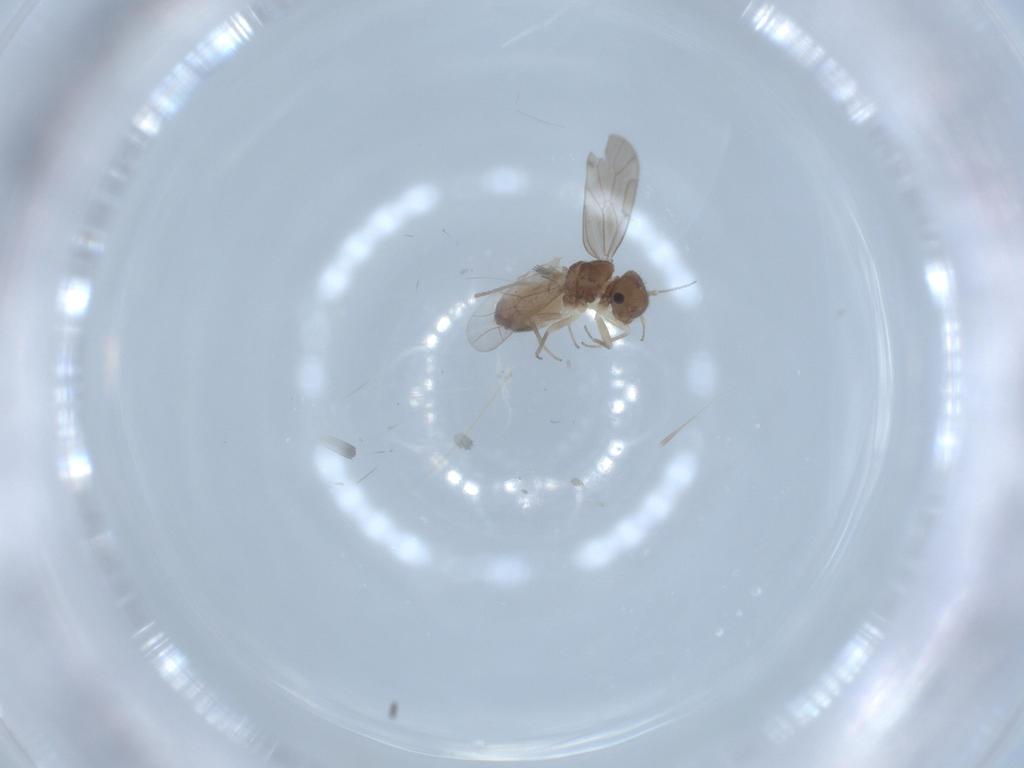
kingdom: Animalia
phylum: Arthropoda
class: Insecta
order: Psocodea
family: Ectopsocidae
